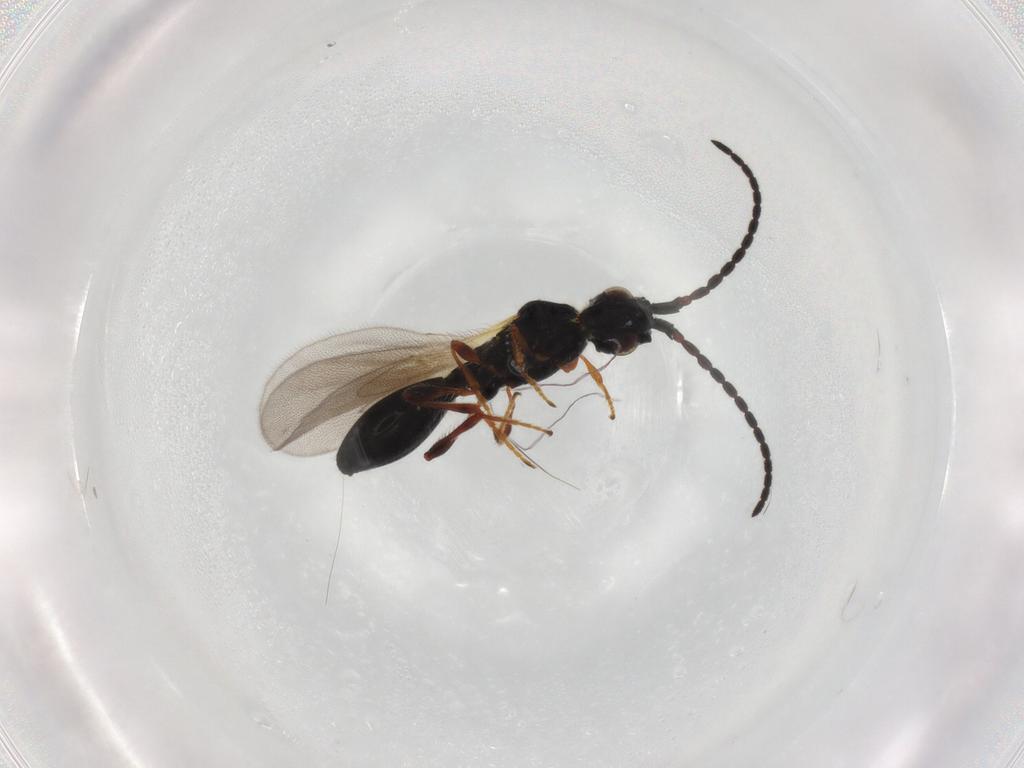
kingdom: Animalia
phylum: Arthropoda
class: Insecta
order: Hymenoptera
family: Diapriidae
